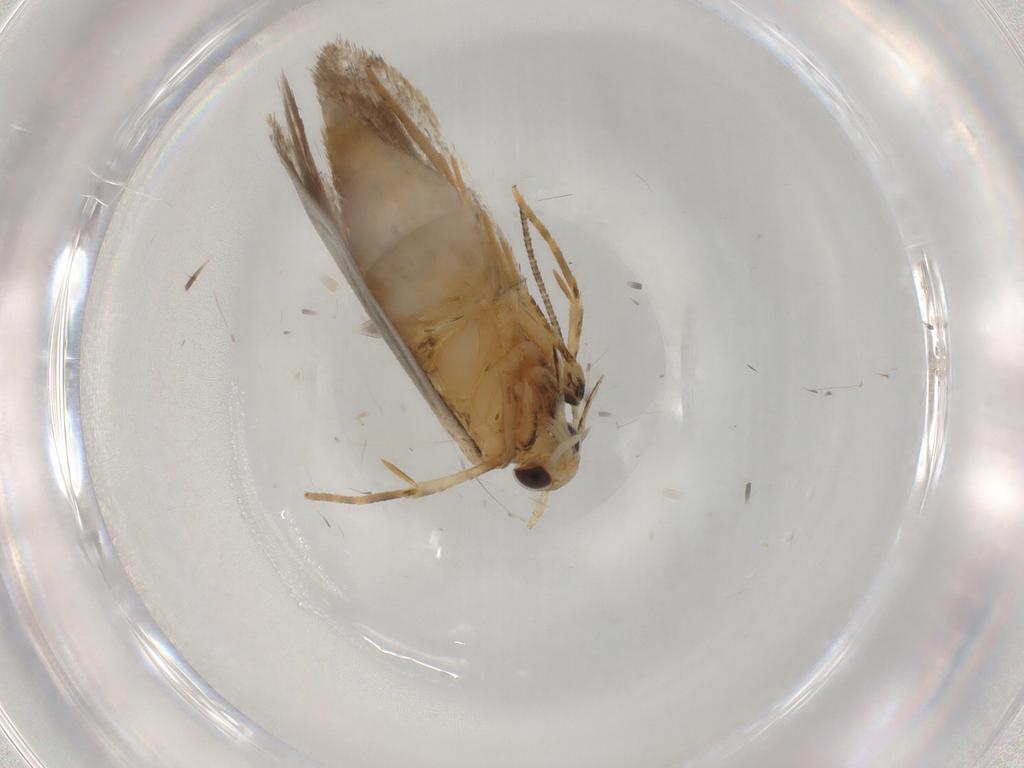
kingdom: Animalia
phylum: Arthropoda
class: Insecta
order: Lepidoptera
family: Autostichidae
